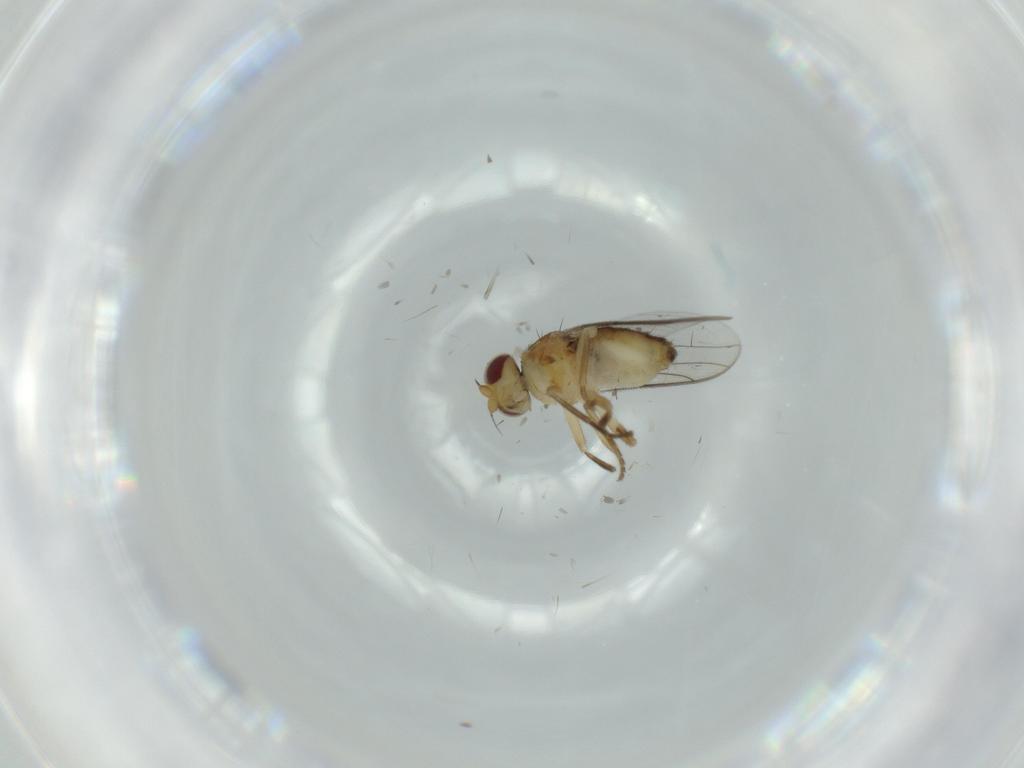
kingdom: Animalia
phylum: Arthropoda
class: Insecta
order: Diptera
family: Chloropidae
